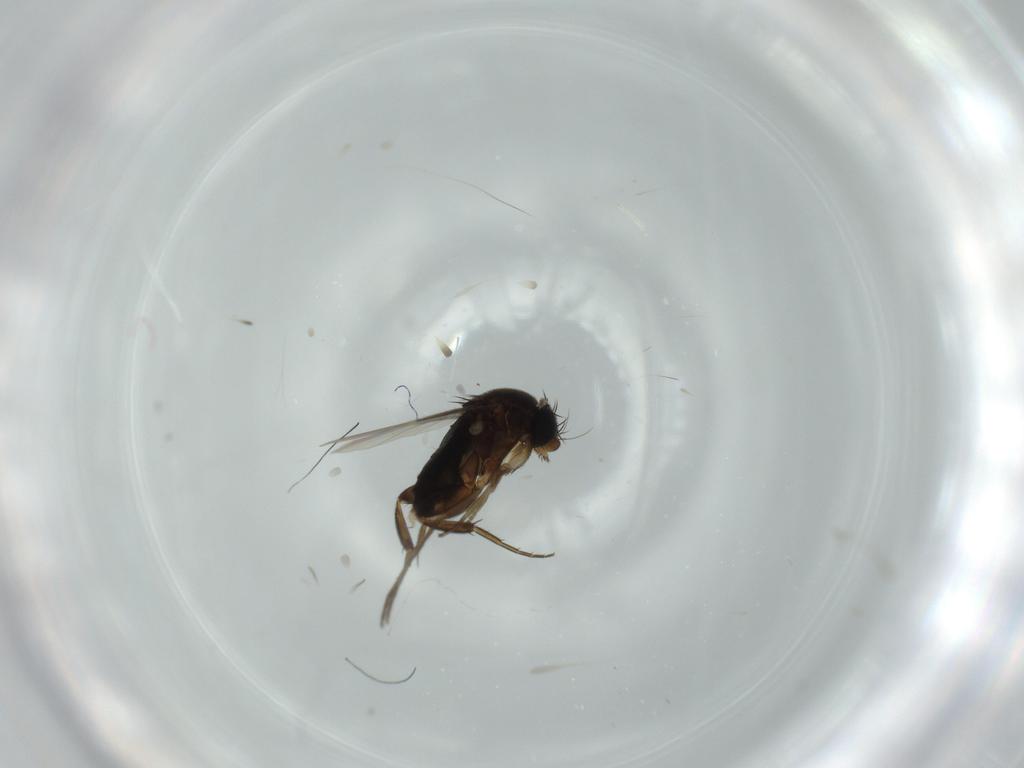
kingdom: Animalia
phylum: Arthropoda
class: Insecta
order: Diptera
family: Phoridae
